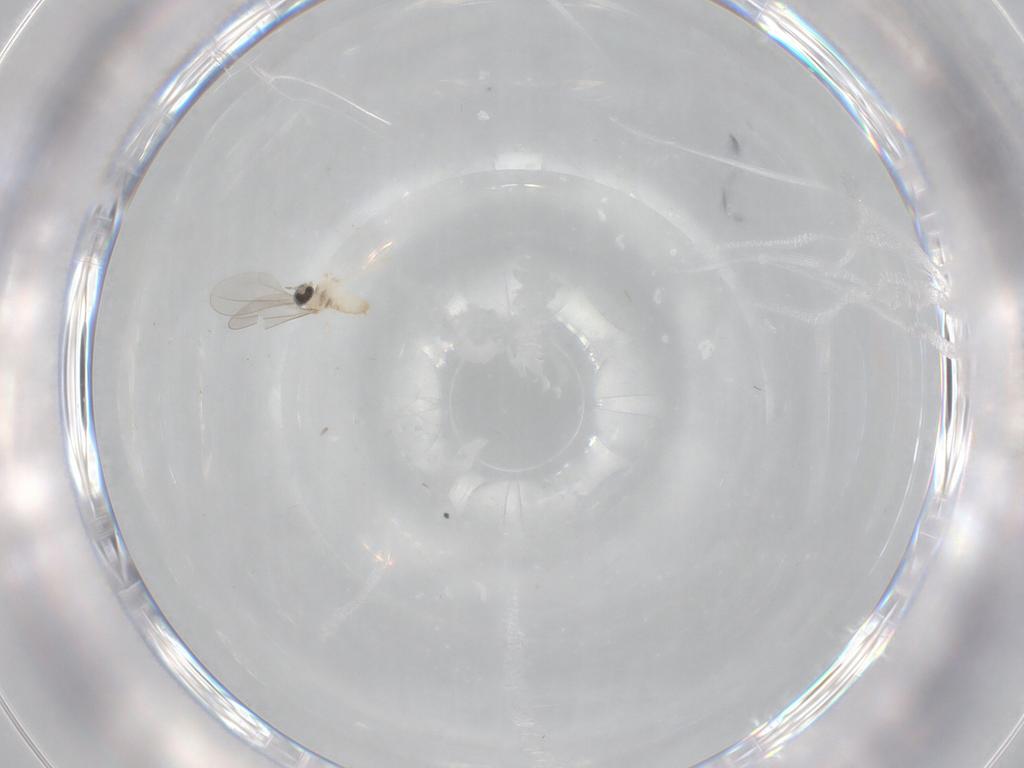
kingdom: Animalia
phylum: Arthropoda
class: Insecta
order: Diptera
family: Cecidomyiidae
